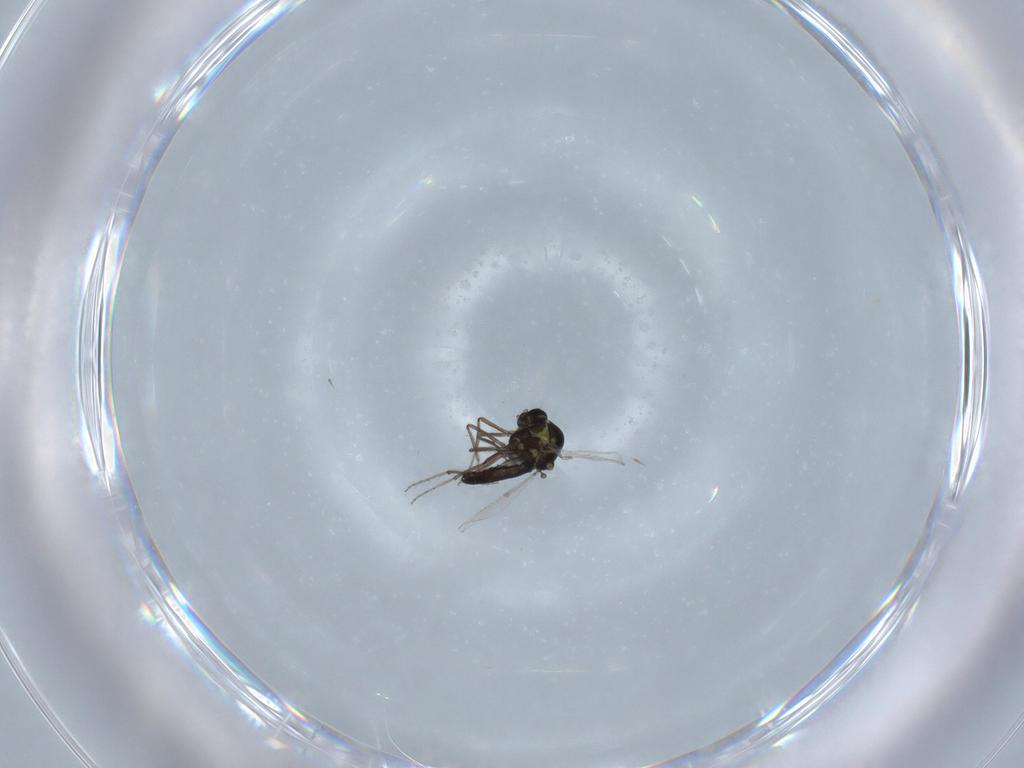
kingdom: Animalia
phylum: Arthropoda
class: Insecta
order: Diptera
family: Ceratopogonidae
